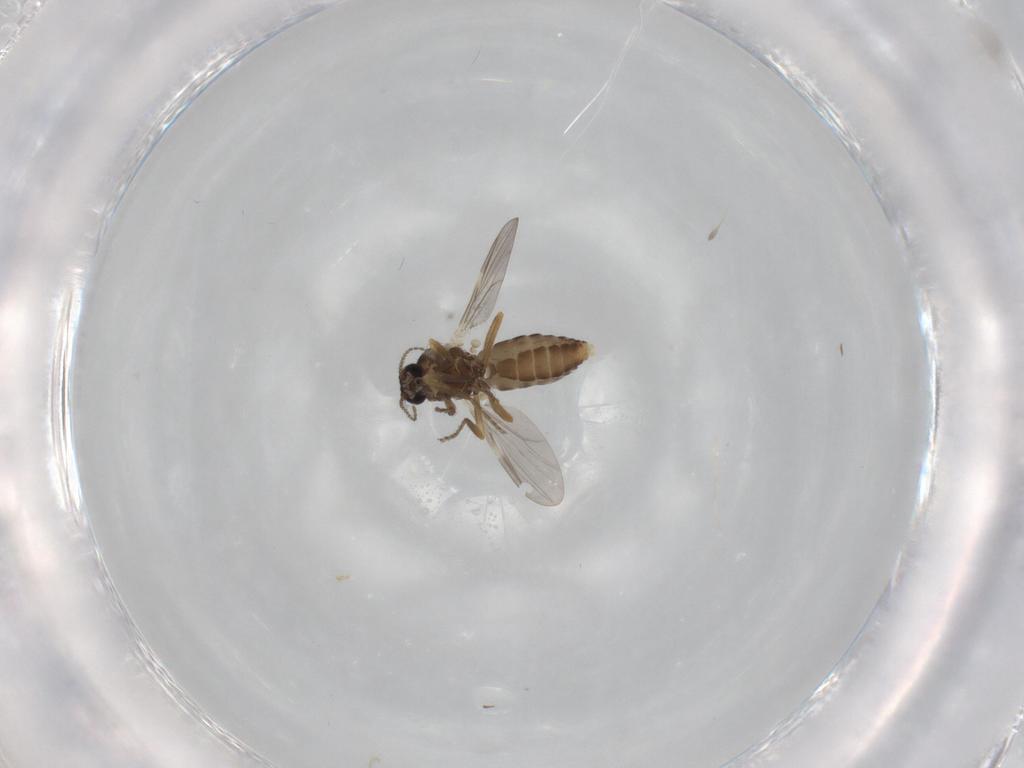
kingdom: Animalia
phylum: Arthropoda
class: Insecta
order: Diptera
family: Ceratopogonidae
